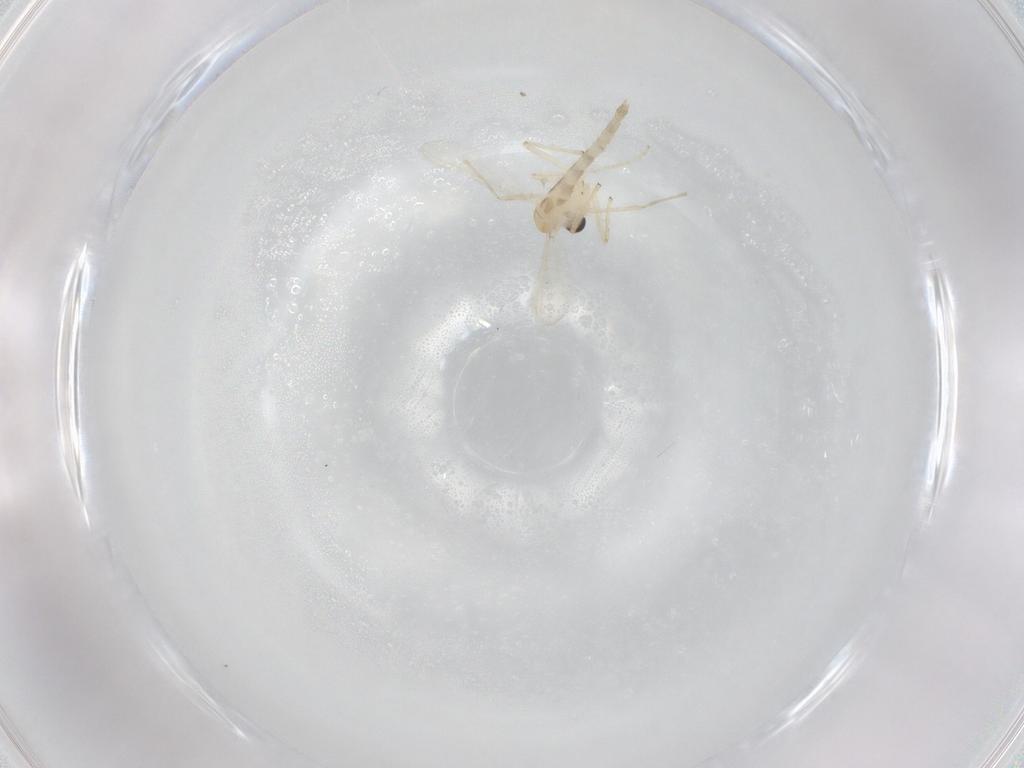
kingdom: Animalia
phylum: Arthropoda
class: Insecta
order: Diptera
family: Chironomidae
